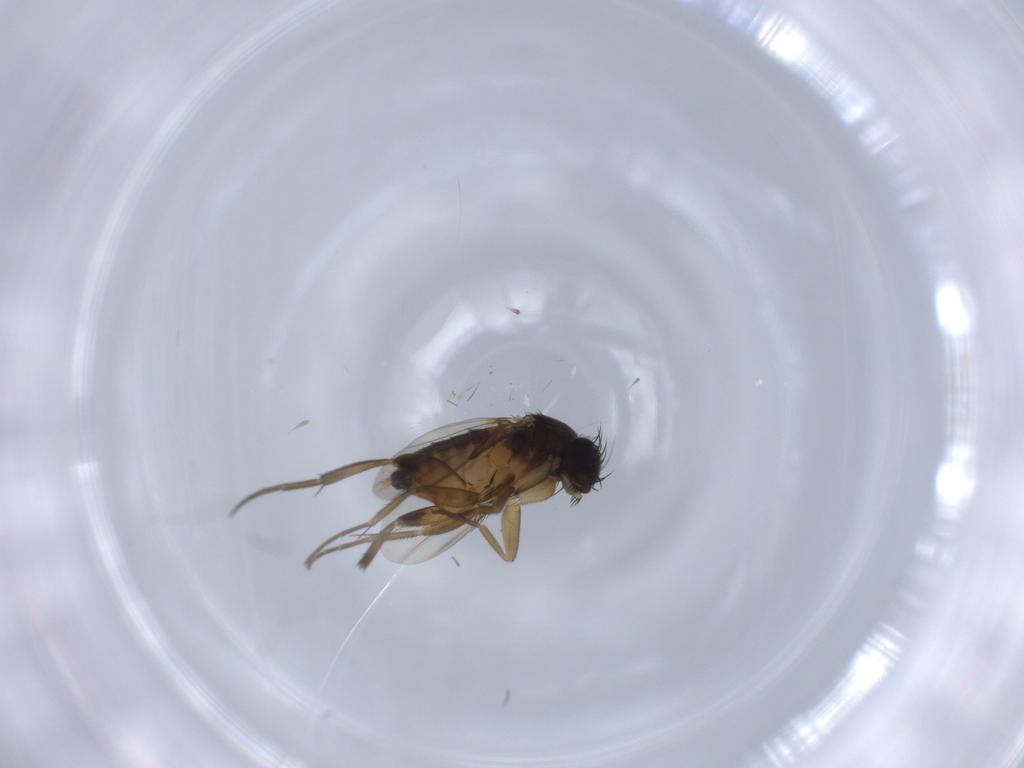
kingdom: Animalia
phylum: Arthropoda
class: Insecta
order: Diptera
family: Phoridae
